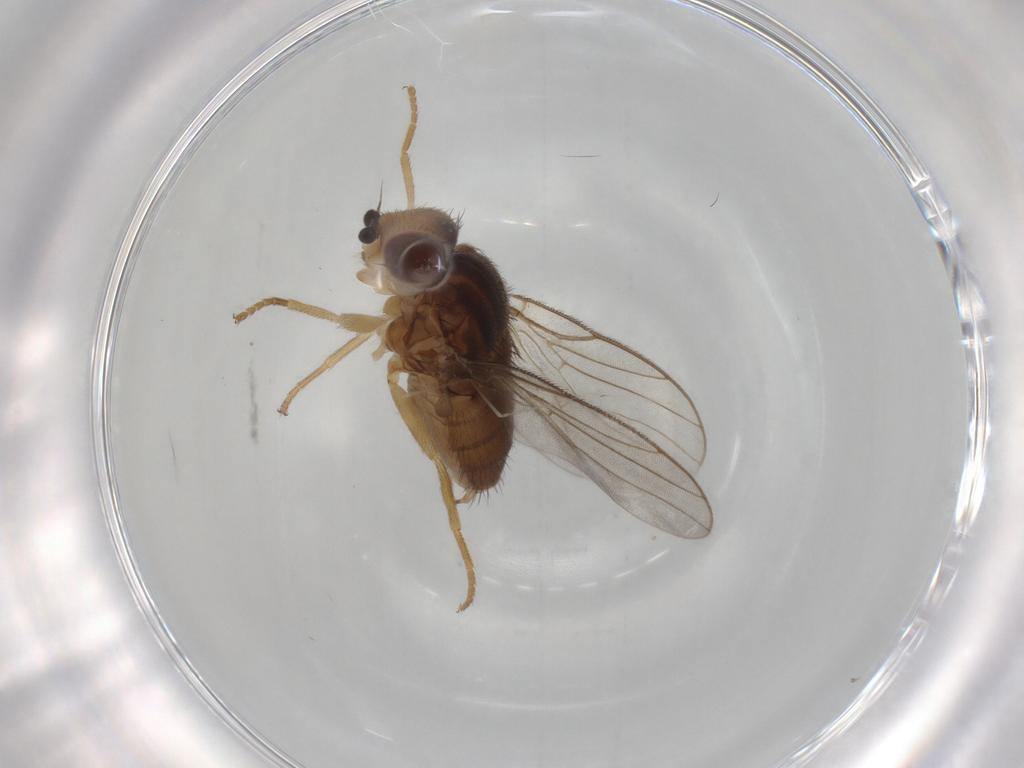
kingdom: Animalia
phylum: Arthropoda
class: Insecta
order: Diptera
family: Chloropidae
